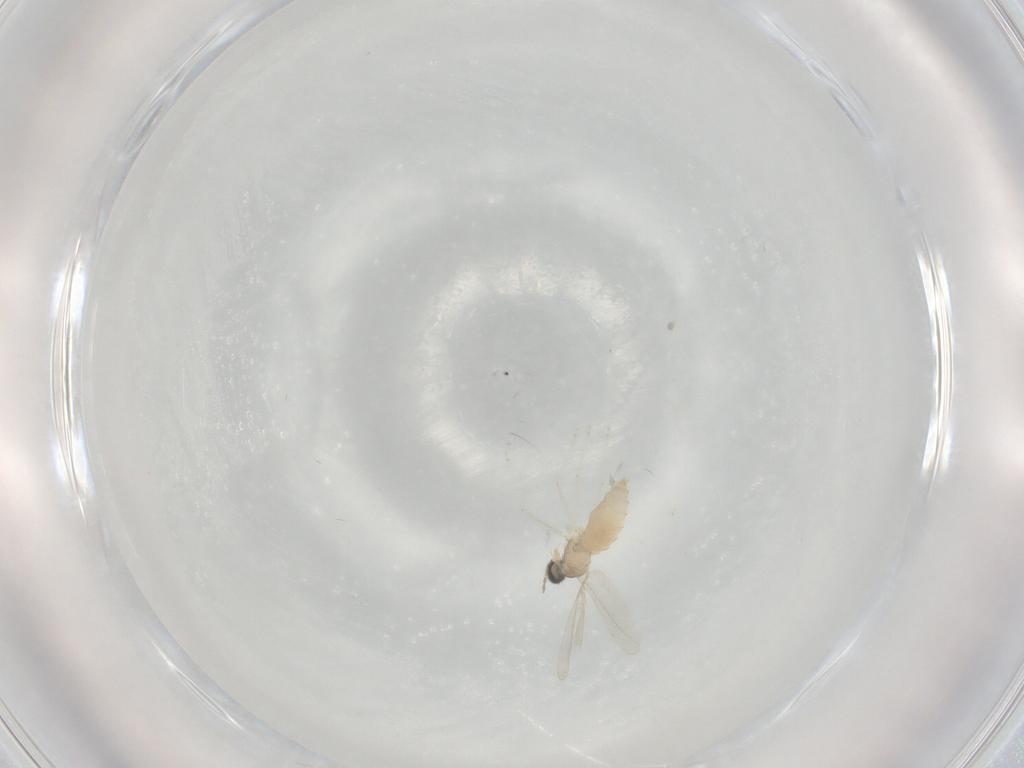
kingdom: Animalia
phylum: Arthropoda
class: Insecta
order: Diptera
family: Cecidomyiidae
